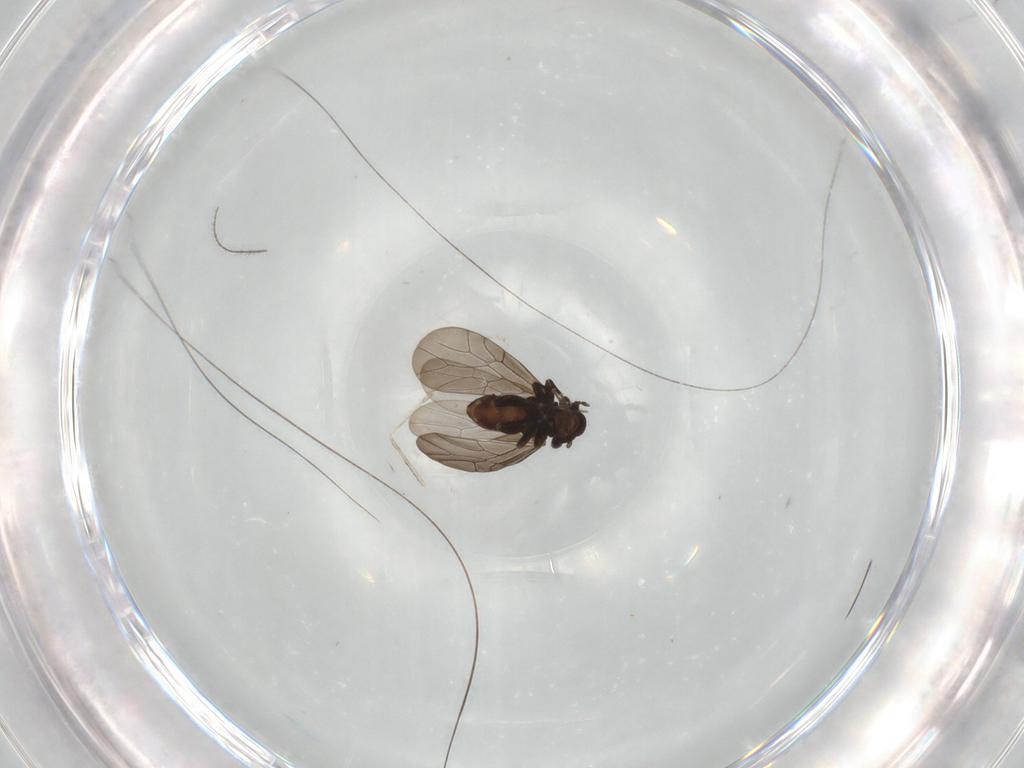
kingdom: Animalia
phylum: Arthropoda
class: Insecta
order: Psocodea
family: Lepidopsocidae
